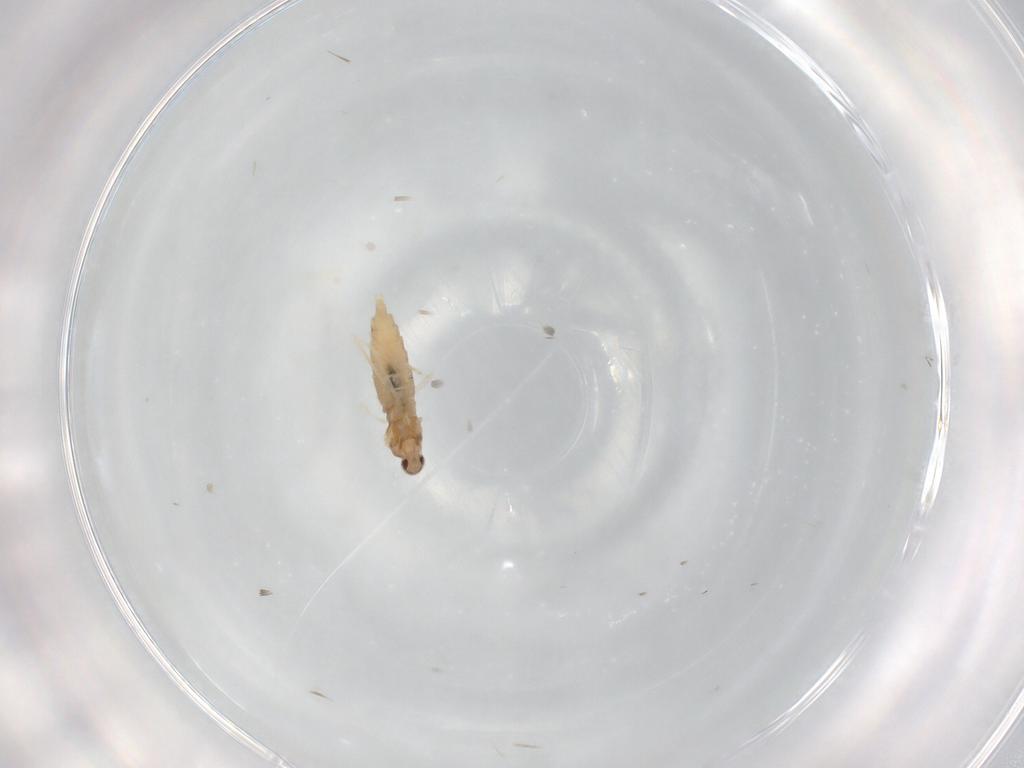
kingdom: Animalia
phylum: Arthropoda
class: Insecta
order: Diptera
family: Cecidomyiidae
